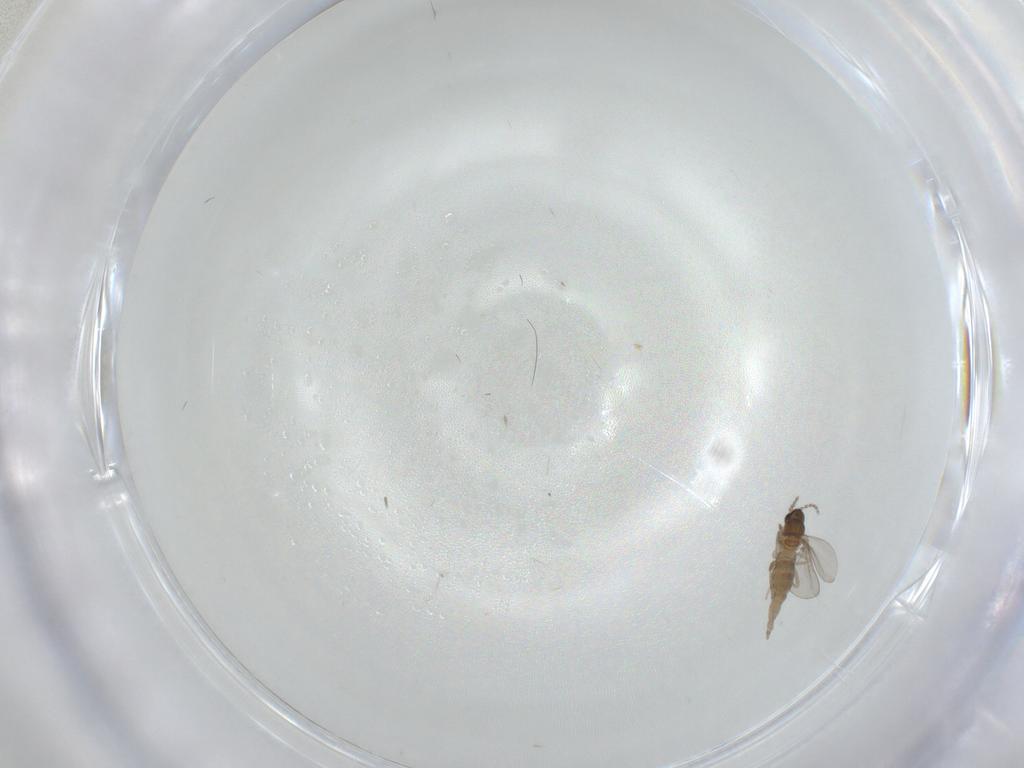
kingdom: Animalia
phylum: Arthropoda
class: Insecta
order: Diptera
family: Cecidomyiidae
